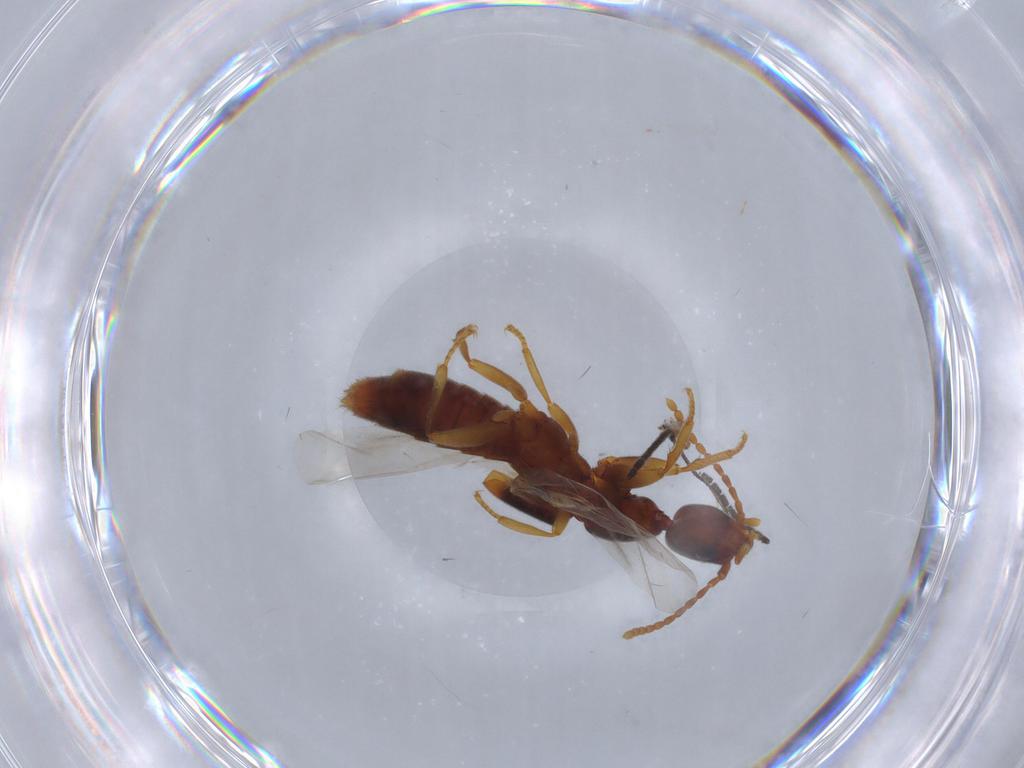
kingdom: Animalia
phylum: Arthropoda
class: Insecta
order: Coleoptera
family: Staphylinidae
